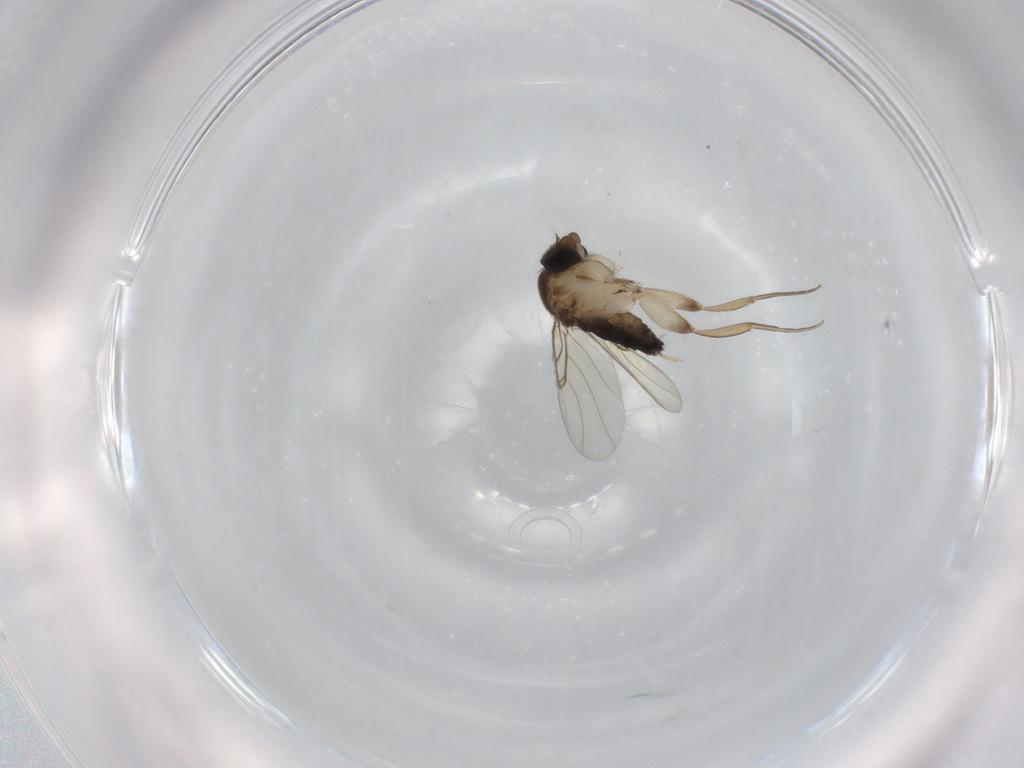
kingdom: Animalia
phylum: Arthropoda
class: Insecta
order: Diptera
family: Phoridae
